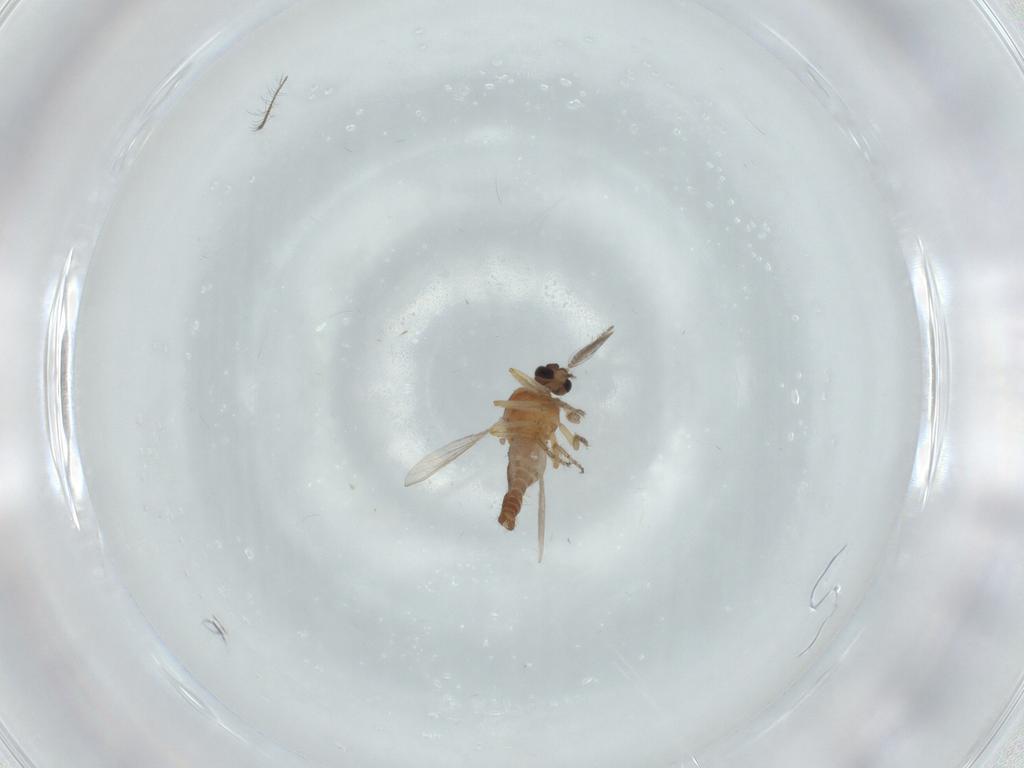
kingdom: Animalia
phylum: Arthropoda
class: Insecta
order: Diptera
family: Ceratopogonidae
